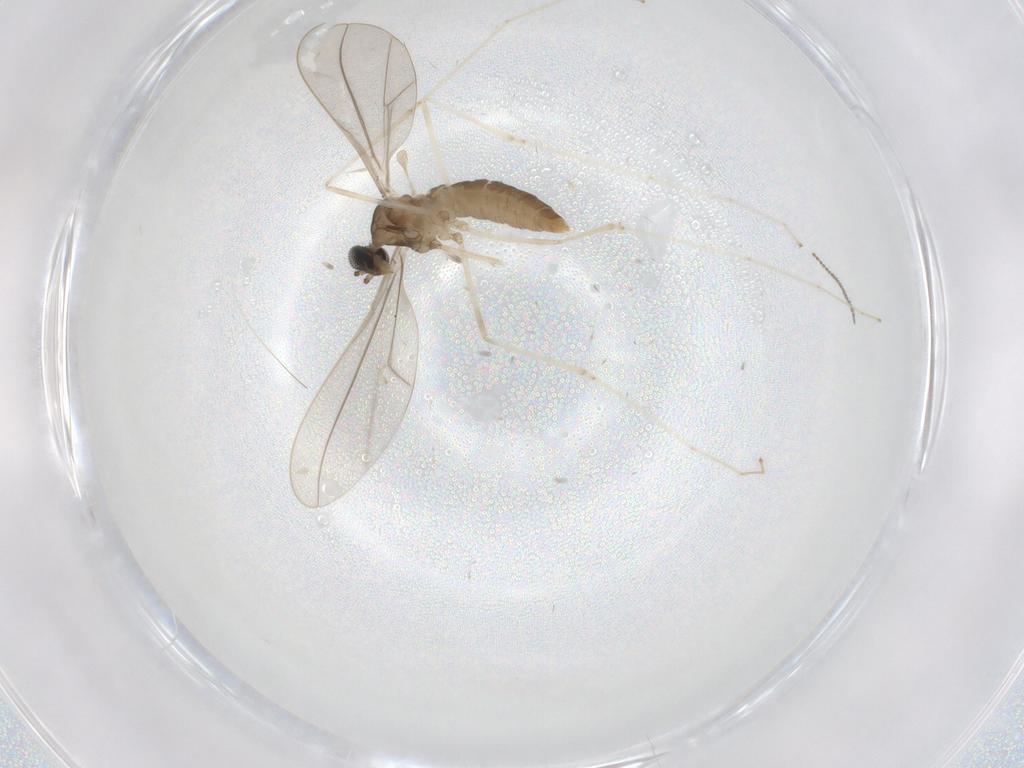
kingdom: Animalia
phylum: Arthropoda
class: Insecta
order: Diptera
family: Cecidomyiidae
